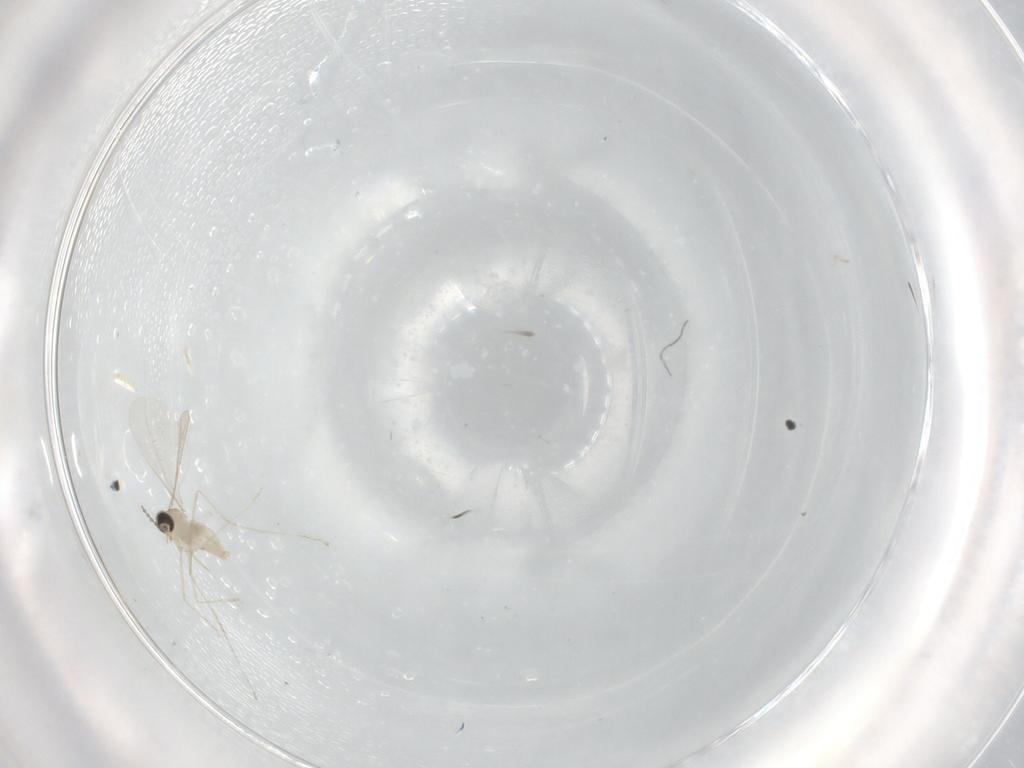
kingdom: Animalia
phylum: Arthropoda
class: Insecta
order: Diptera
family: Cecidomyiidae
